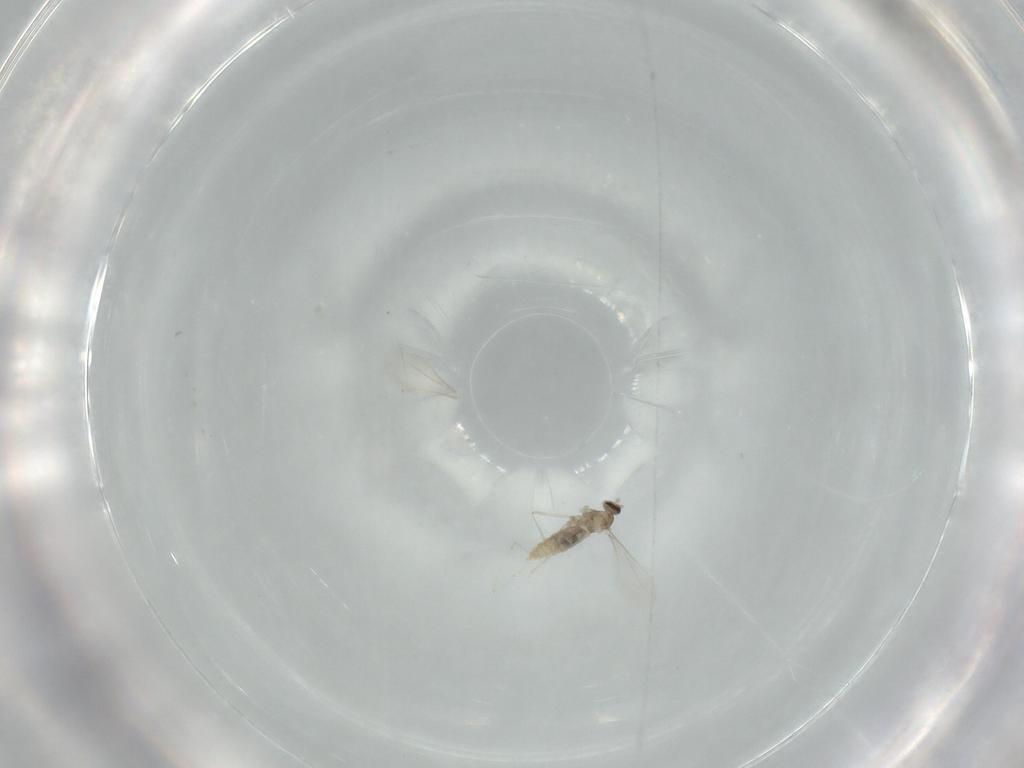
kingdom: Animalia
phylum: Arthropoda
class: Insecta
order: Diptera
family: Cecidomyiidae
